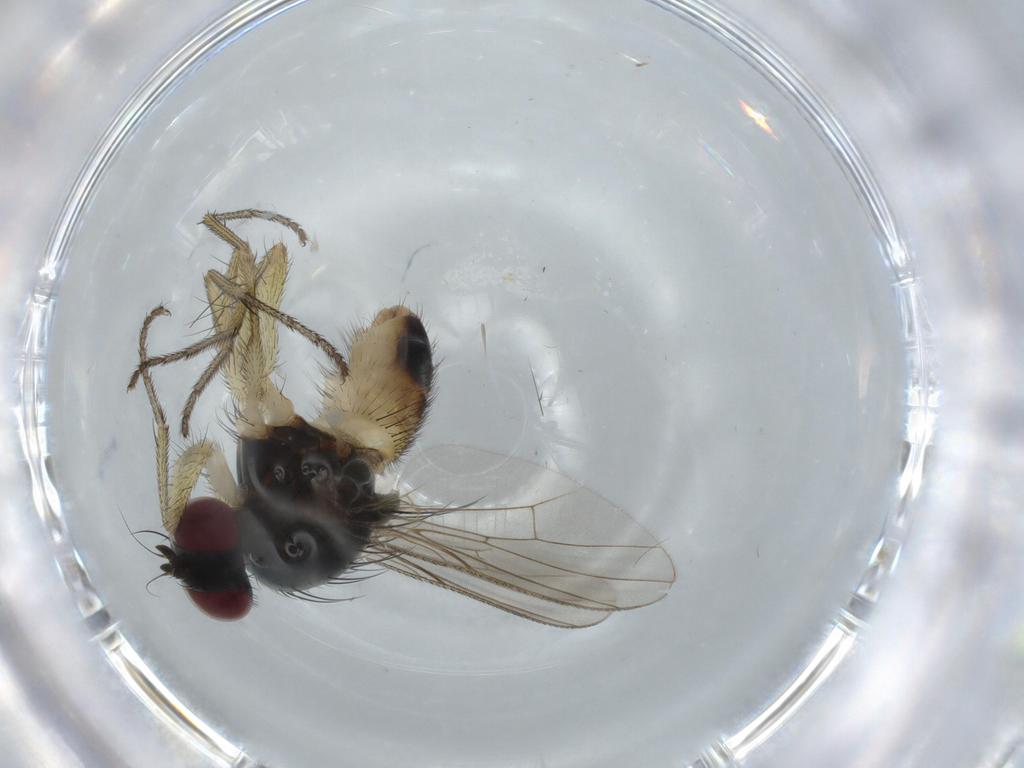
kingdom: Animalia
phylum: Arthropoda
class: Insecta
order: Diptera
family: Muscidae
